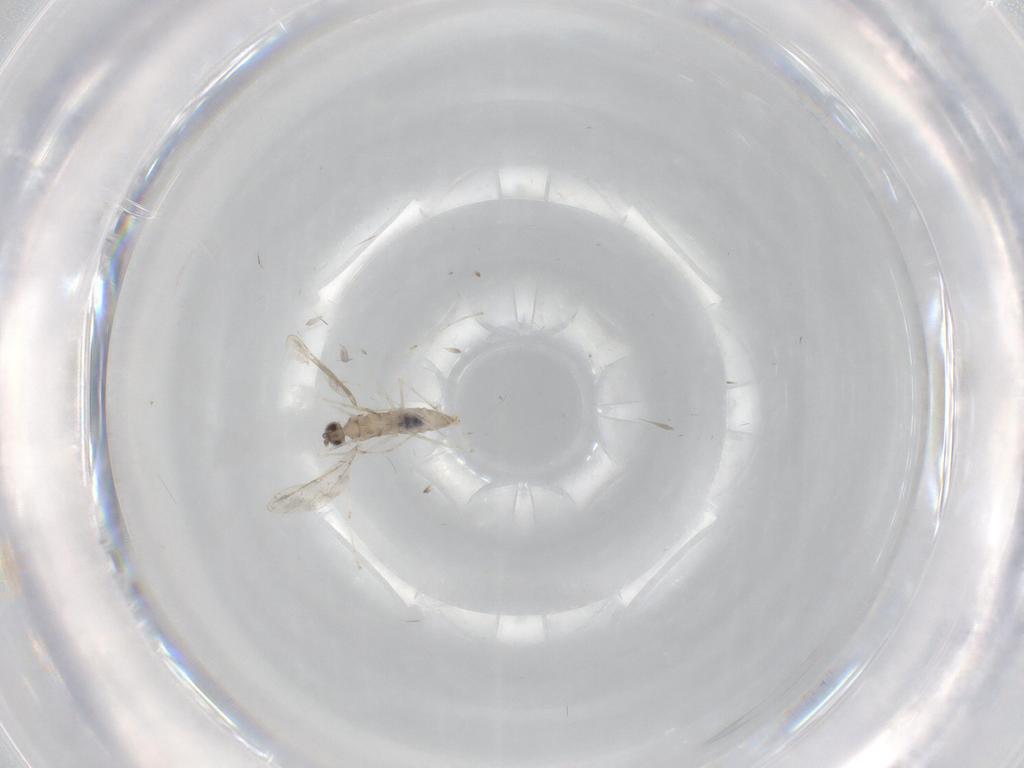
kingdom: Animalia
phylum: Arthropoda
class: Insecta
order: Diptera
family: Cecidomyiidae
